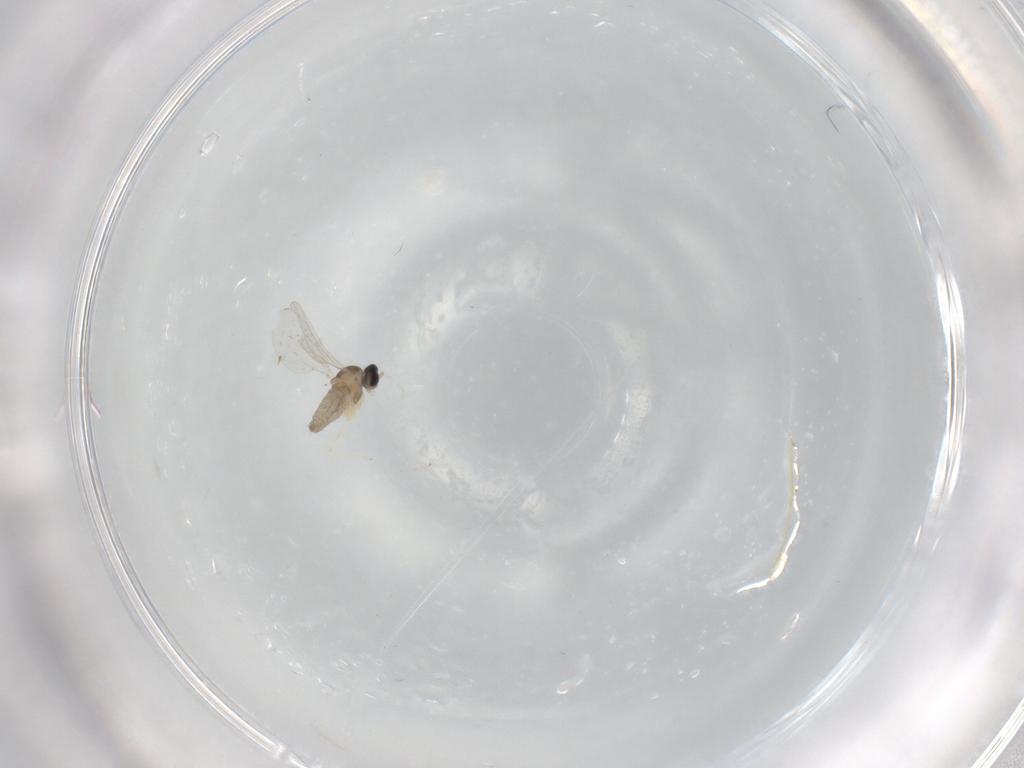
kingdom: Animalia
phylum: Arthropoda
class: Insecta
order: Diptera
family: Cecidomyiidae
